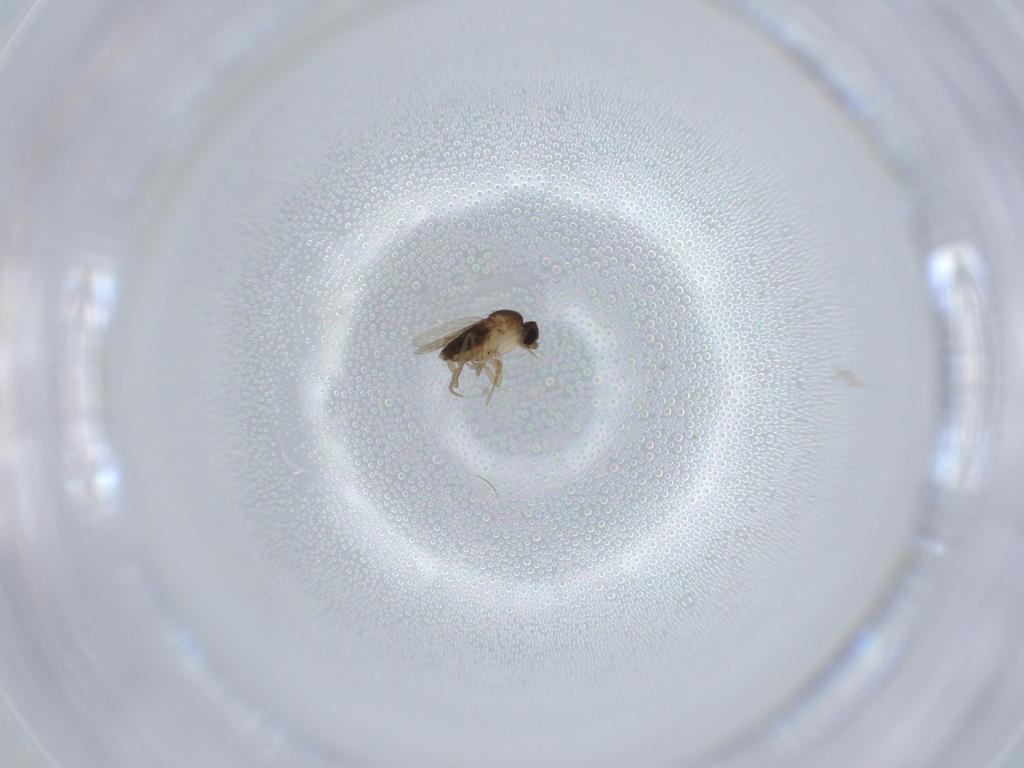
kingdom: Animalia
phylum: Arthropoda
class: Insecta
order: Diptera
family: Phoridae
